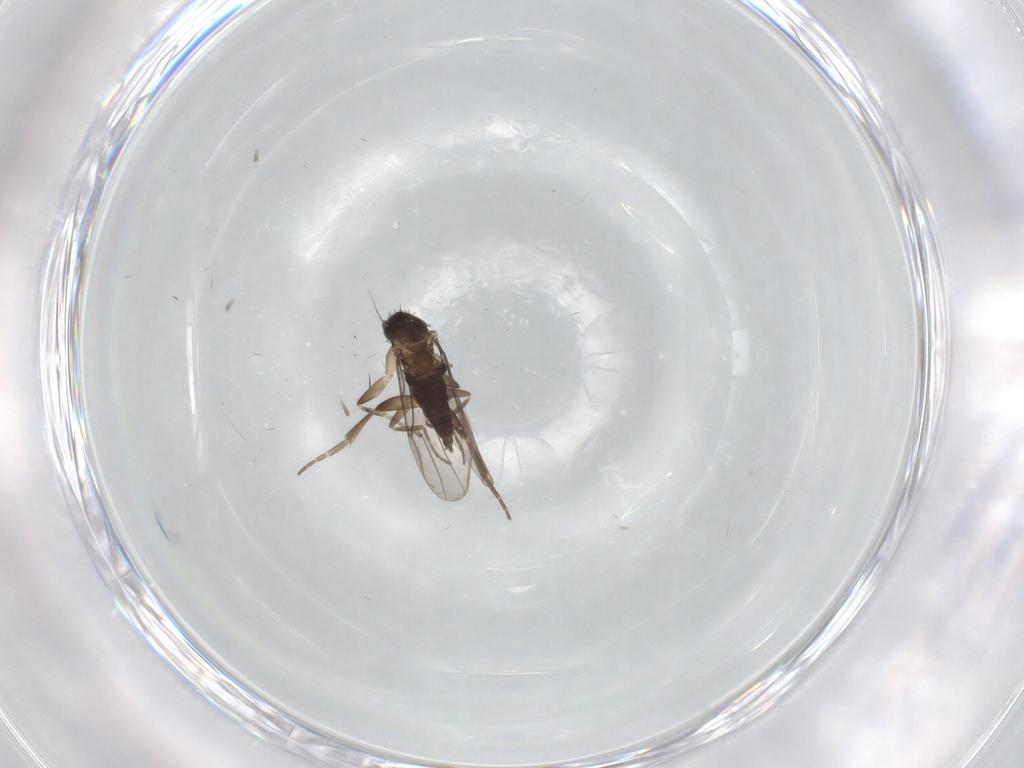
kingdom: Animalia
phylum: Arthropoda
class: Insecta
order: Diptera
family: Phoridae
